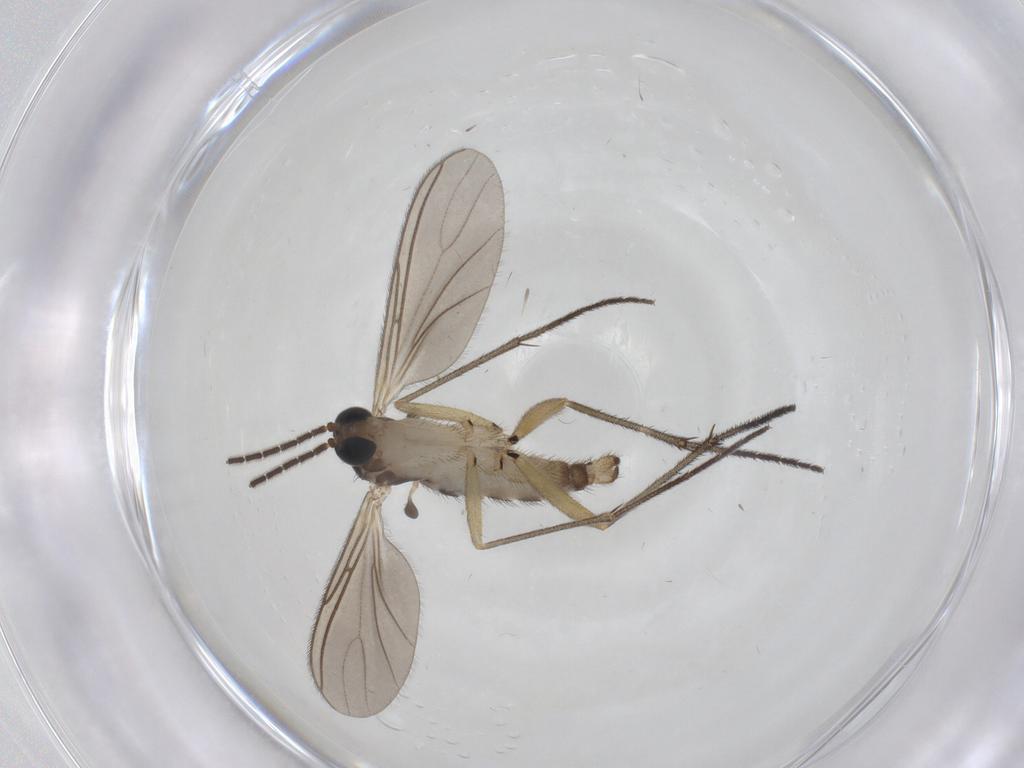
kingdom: Animalia
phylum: Arthropoda
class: Insecta
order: Diptera
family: Sciaridae
